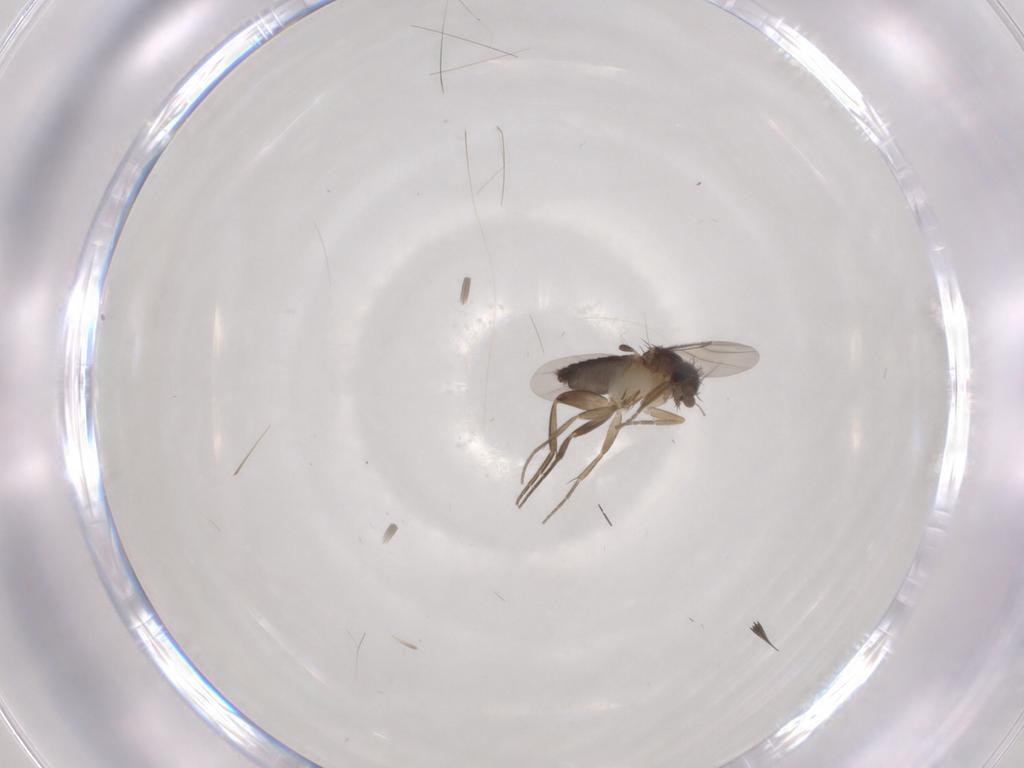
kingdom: Animalia
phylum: Arthropoda
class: Insecta
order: Diptera
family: Phoridae
